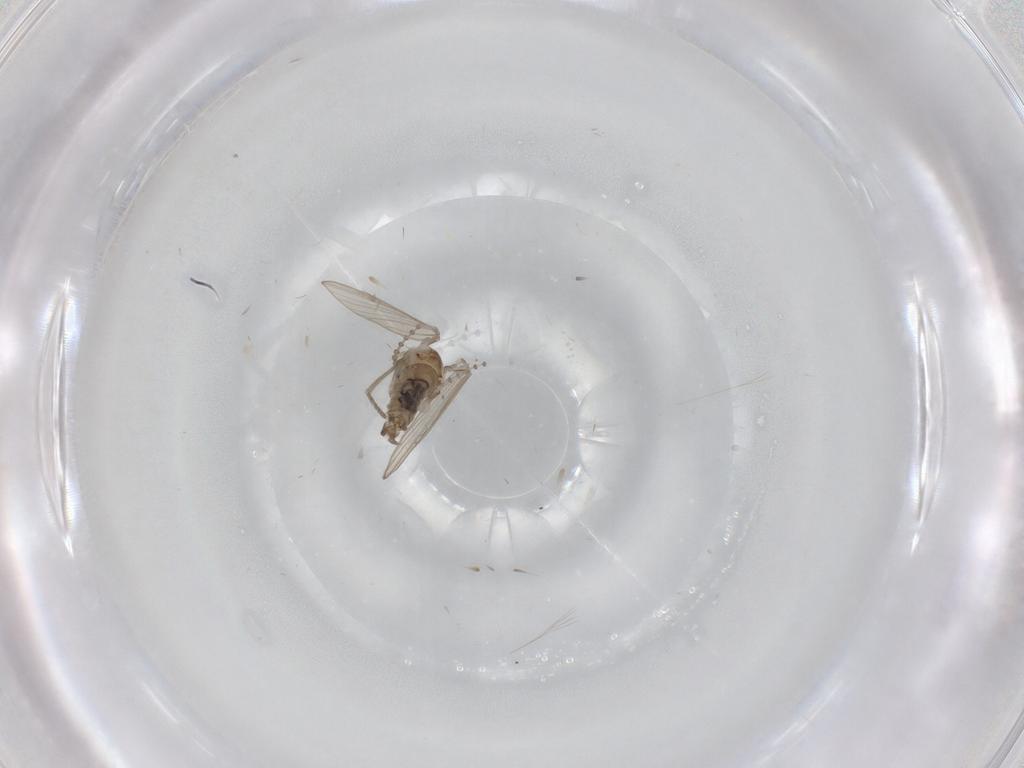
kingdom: Animalia
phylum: Arthropoda
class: Insecta
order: Diptera
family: Psychodidae
